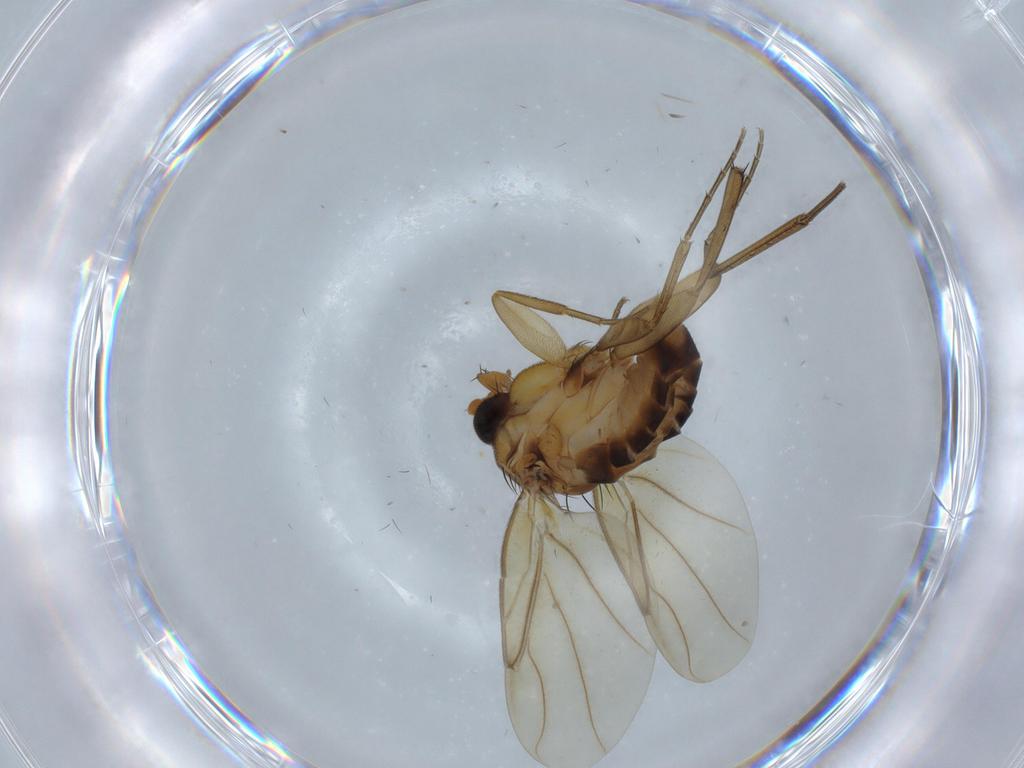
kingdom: Animalia
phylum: Arthropoda
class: Insecta
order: Diptera
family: Phoridae
